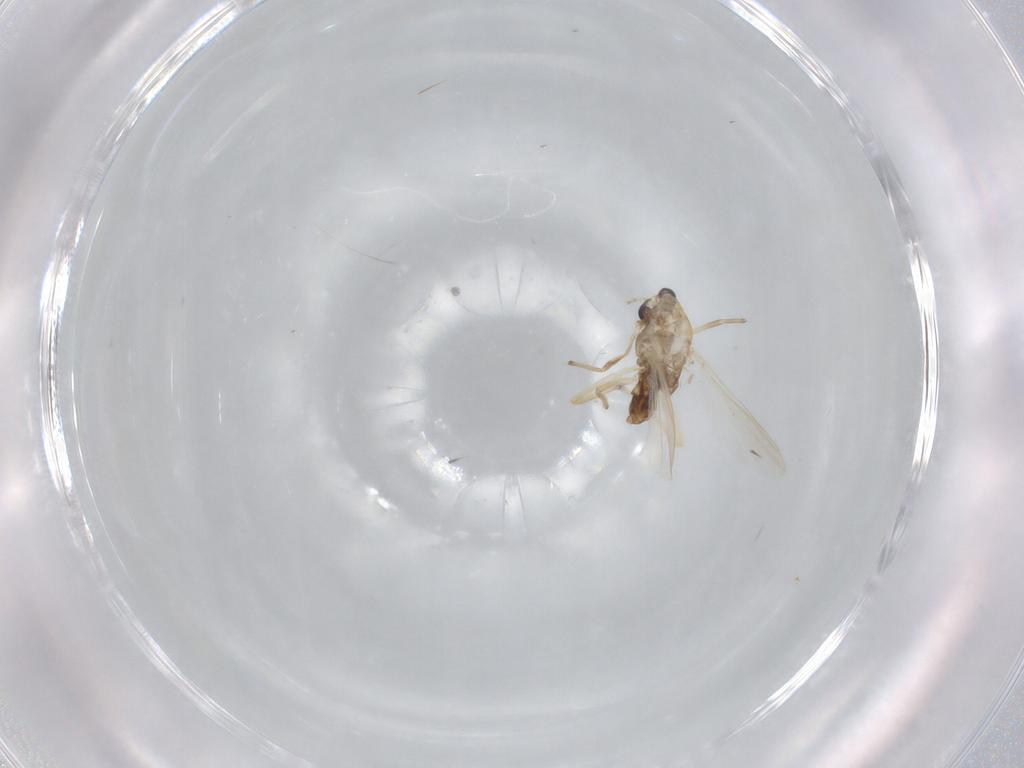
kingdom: Animalia
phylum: Arthropoda
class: Insecta
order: Diptera
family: Chironomidae
